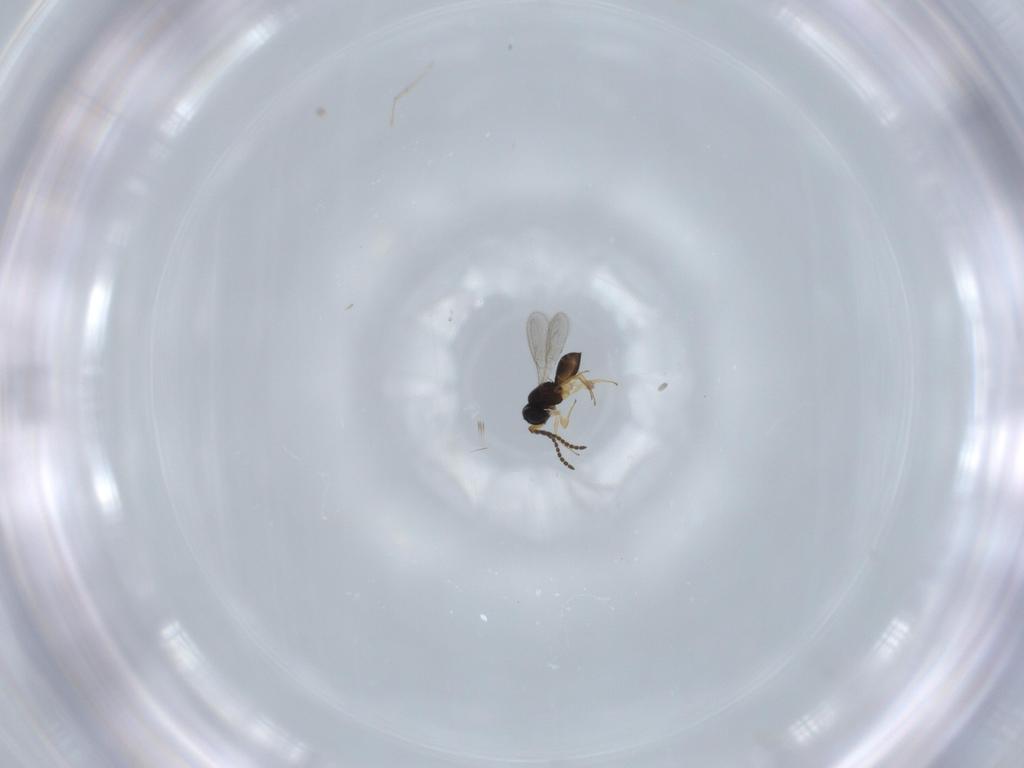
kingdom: Animalia
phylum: Arthropoda
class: Insecta
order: Hymenoptera
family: Scelionidae
